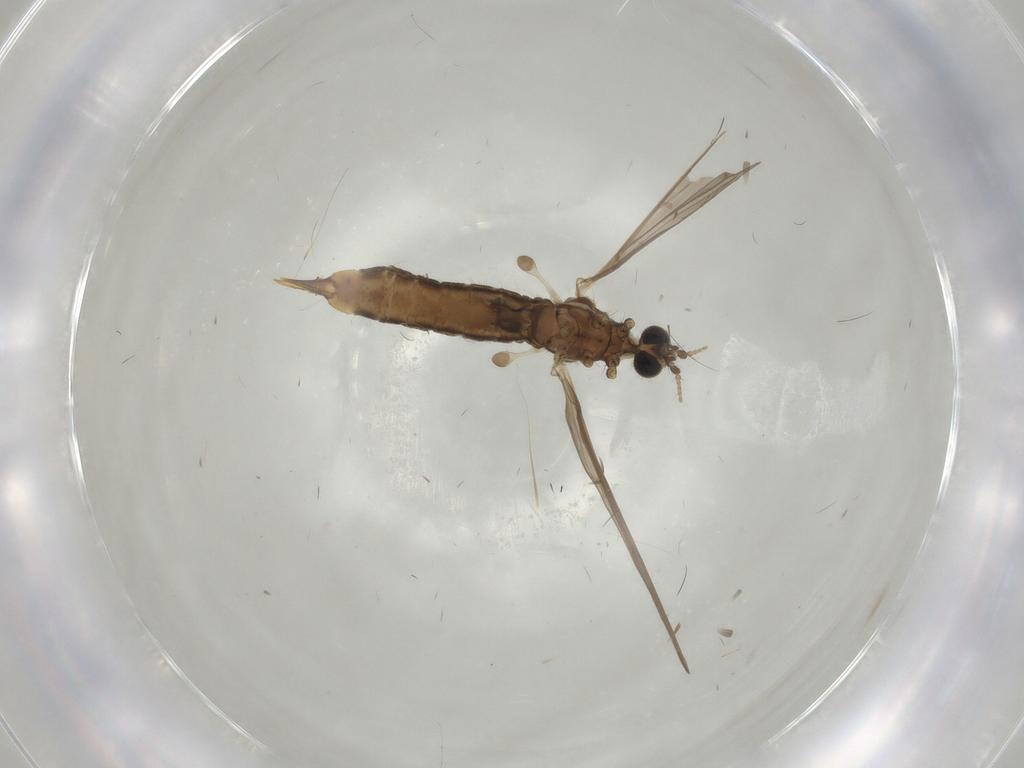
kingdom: Animalia
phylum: Arthropoda
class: Insecta
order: Diptera
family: Limoniidae
